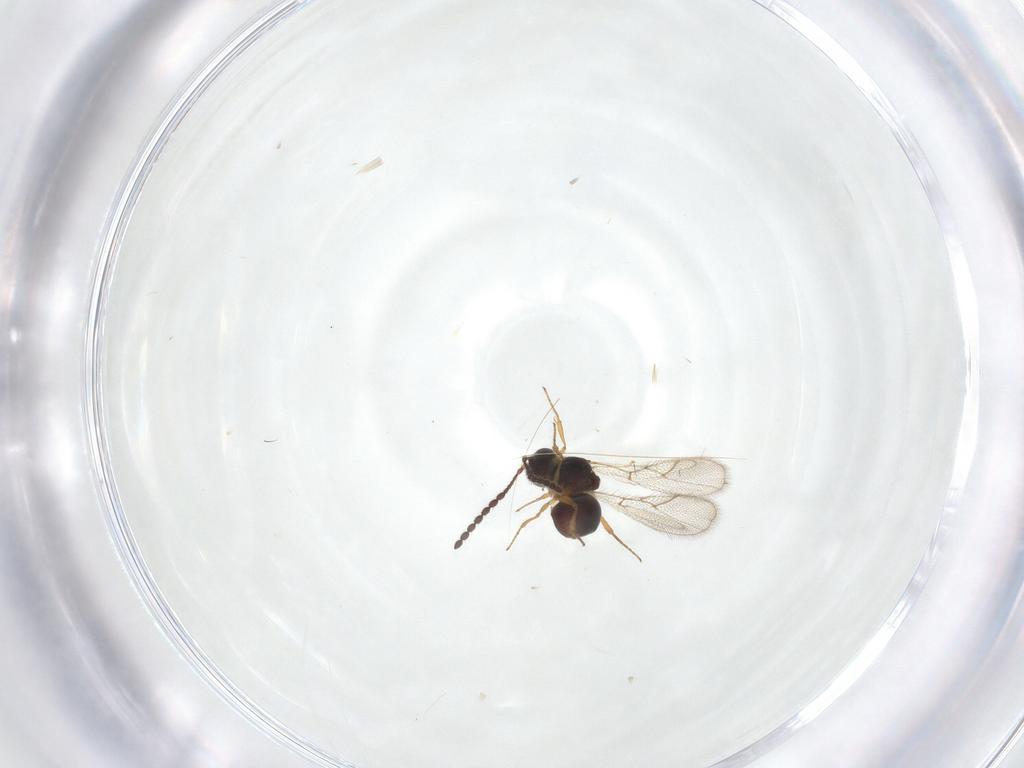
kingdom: Animalia
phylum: Arthropoda
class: Insecta
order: Hymenoptera
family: Figitidae
